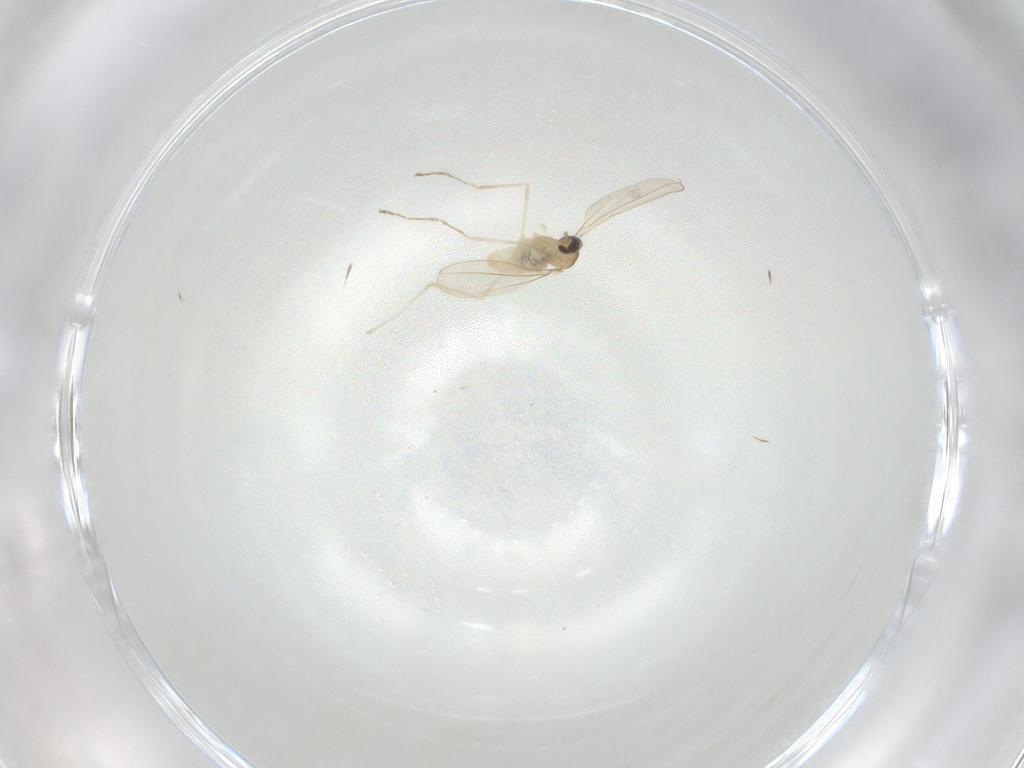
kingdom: Animalia
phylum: Arthropoda
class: Insecta
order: Diptera
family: Cecidomyiidae
